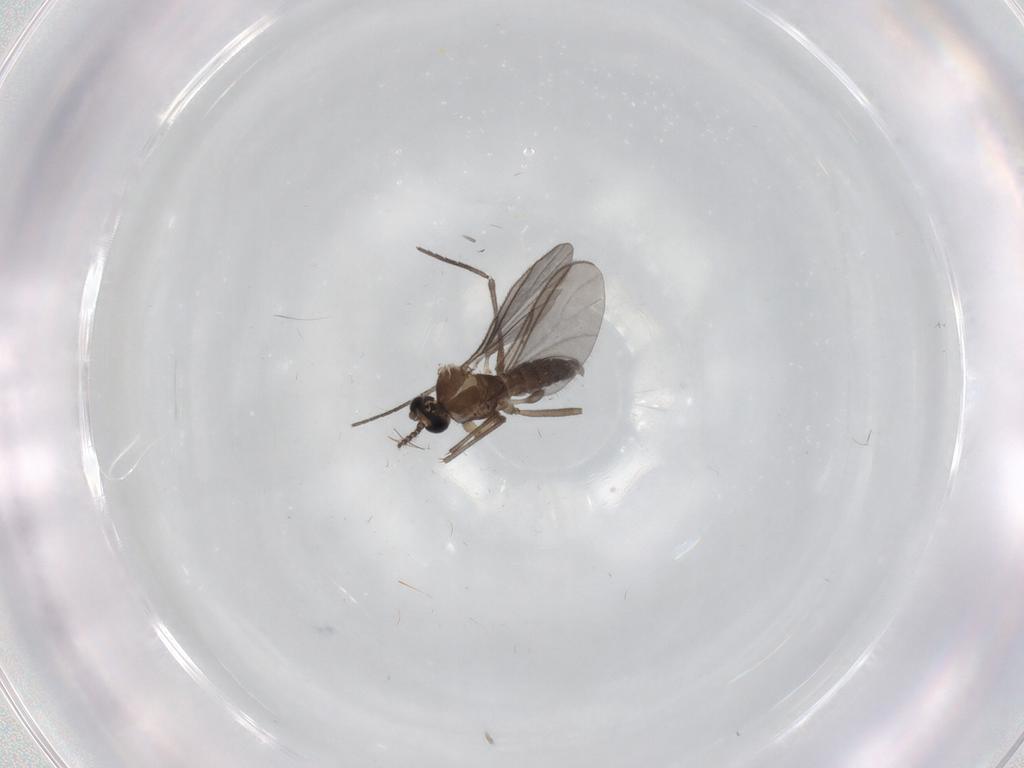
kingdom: Animalia
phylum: Arthropoda
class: Insecta
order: Diptera
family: Sciaridae
